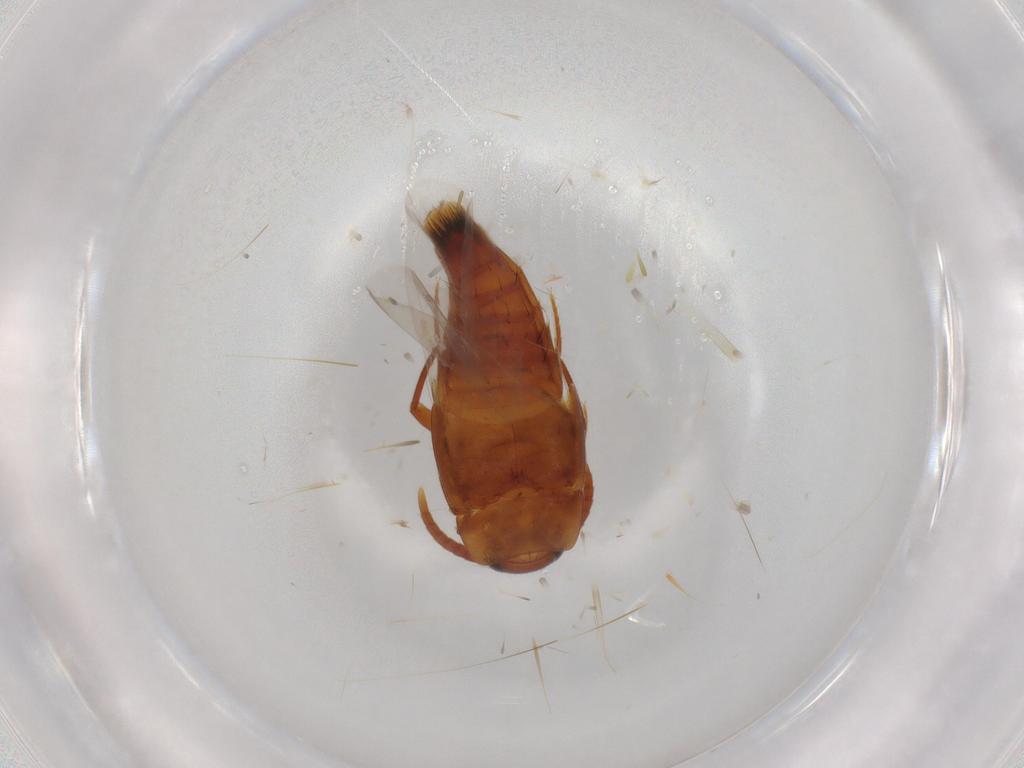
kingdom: Animalia
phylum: Arthropoda
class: Insecta
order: Coleoptera
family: Staphylinidae
